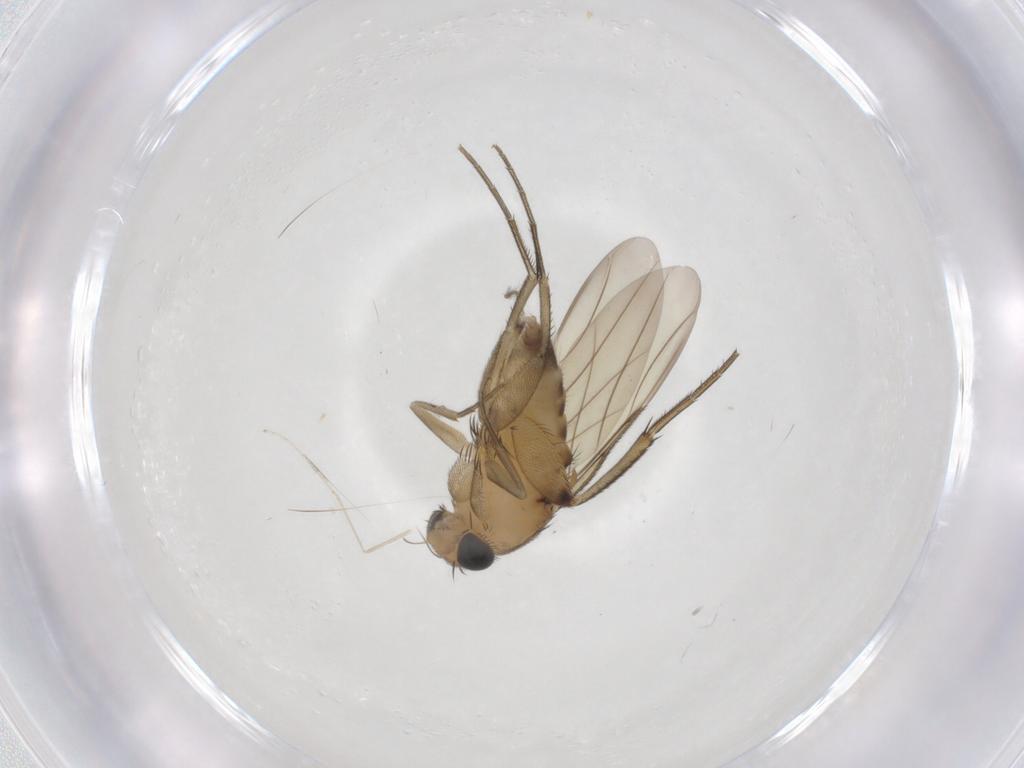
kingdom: Animalia
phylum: Arthropoda
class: Insecta
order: Diptera
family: Phoridae
